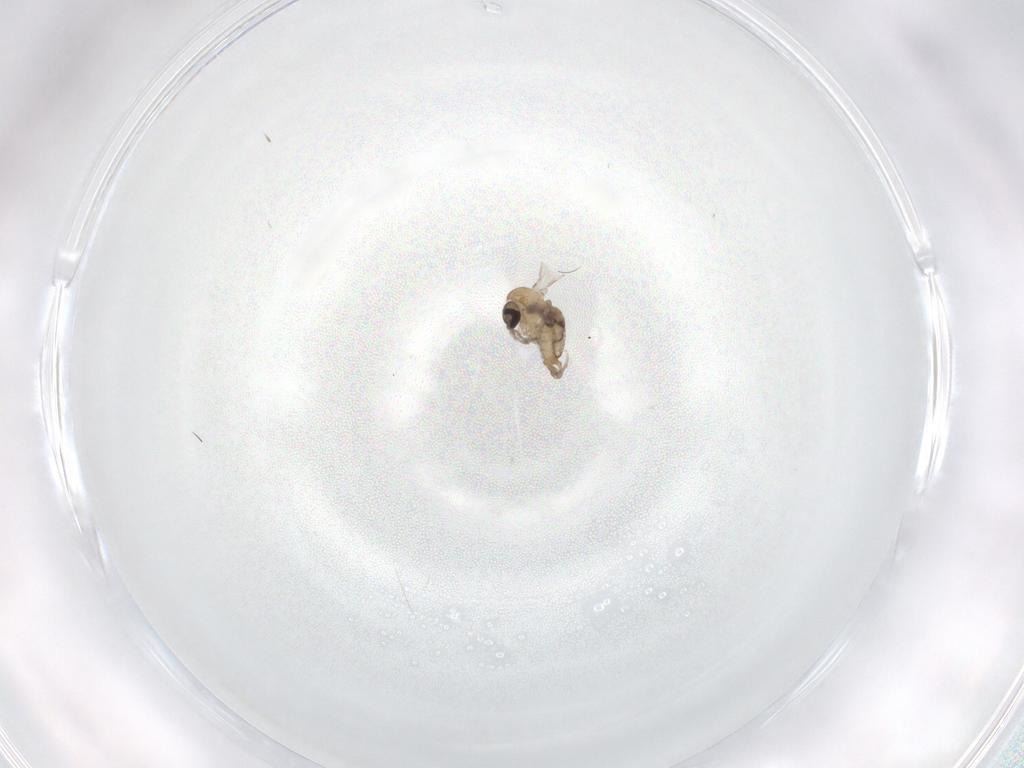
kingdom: Animalia
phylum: Arthropoda
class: Insecta
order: Diptera
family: Psychodidae
